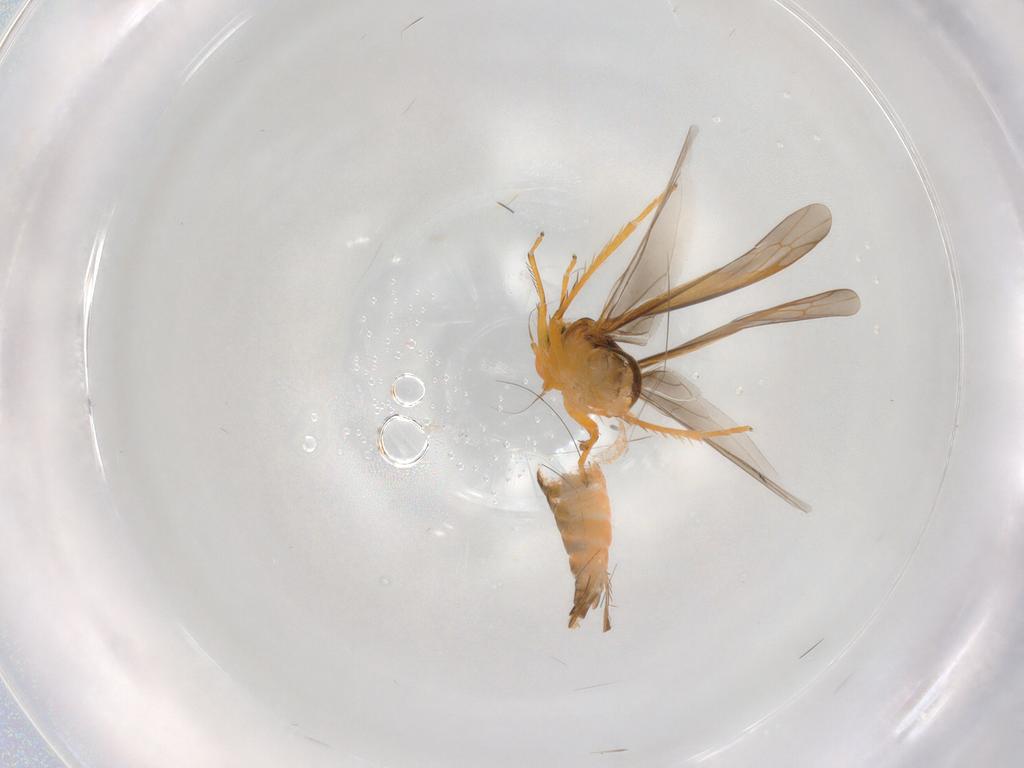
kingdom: Animalia
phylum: Arthropoda
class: Insecta
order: Hemiptera
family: Cicadellidae
